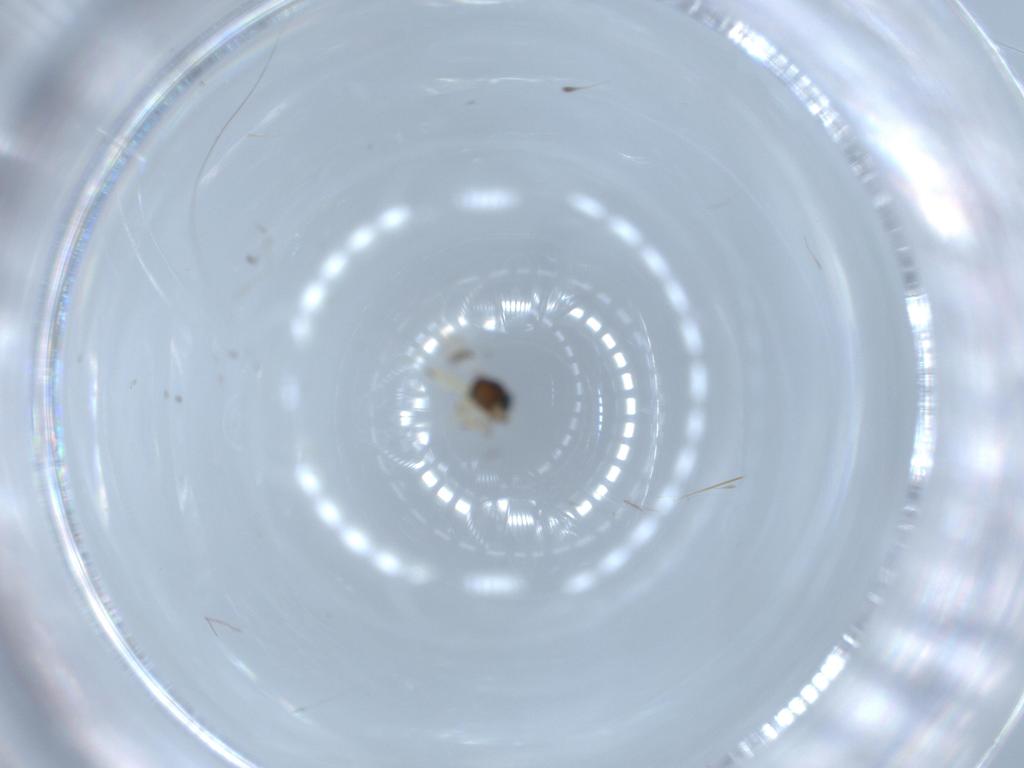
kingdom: Animalia
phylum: Arthropoda
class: Insecta
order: Hymenoptera
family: Scelionidae
